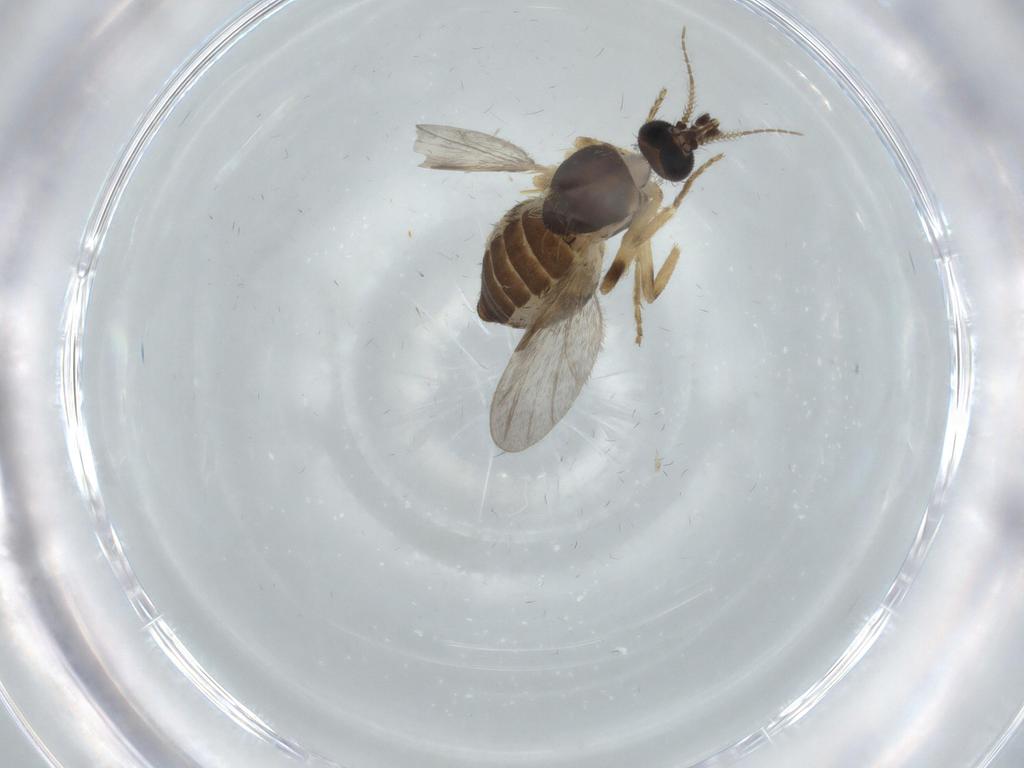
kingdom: Animalia
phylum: Arthropoda
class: Insecta
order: Diptera
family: Ceratopogonidae
